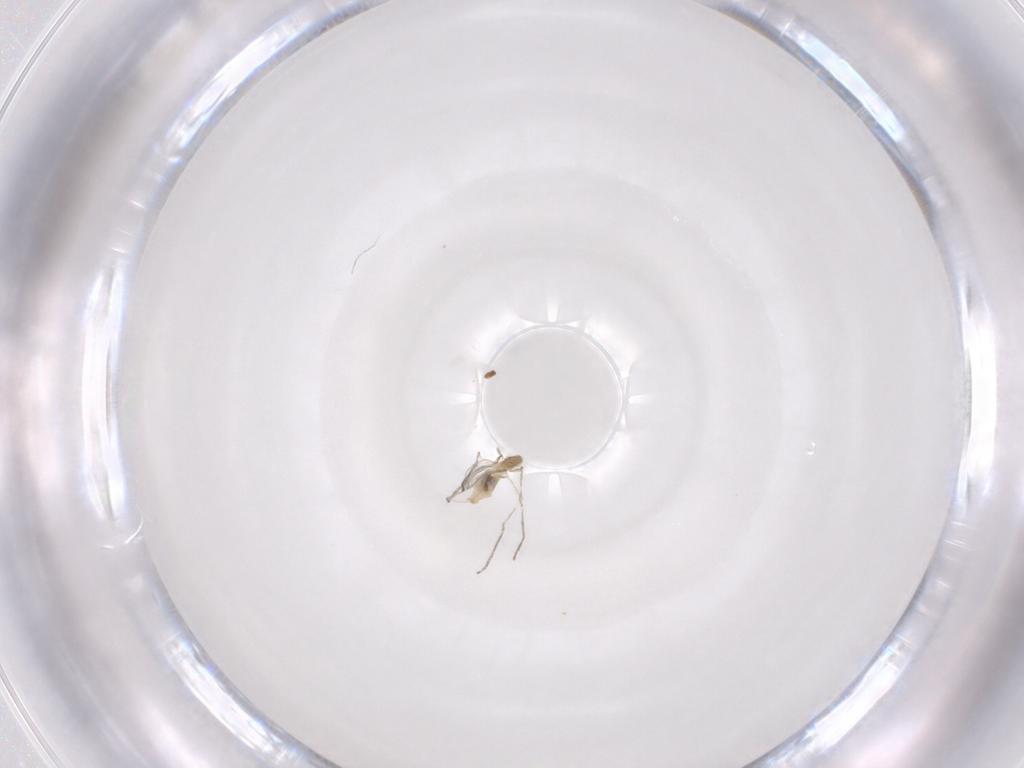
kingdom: Animalia
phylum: Arthropoda
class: Insecta
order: Diptera
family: Cecidomyiidae
